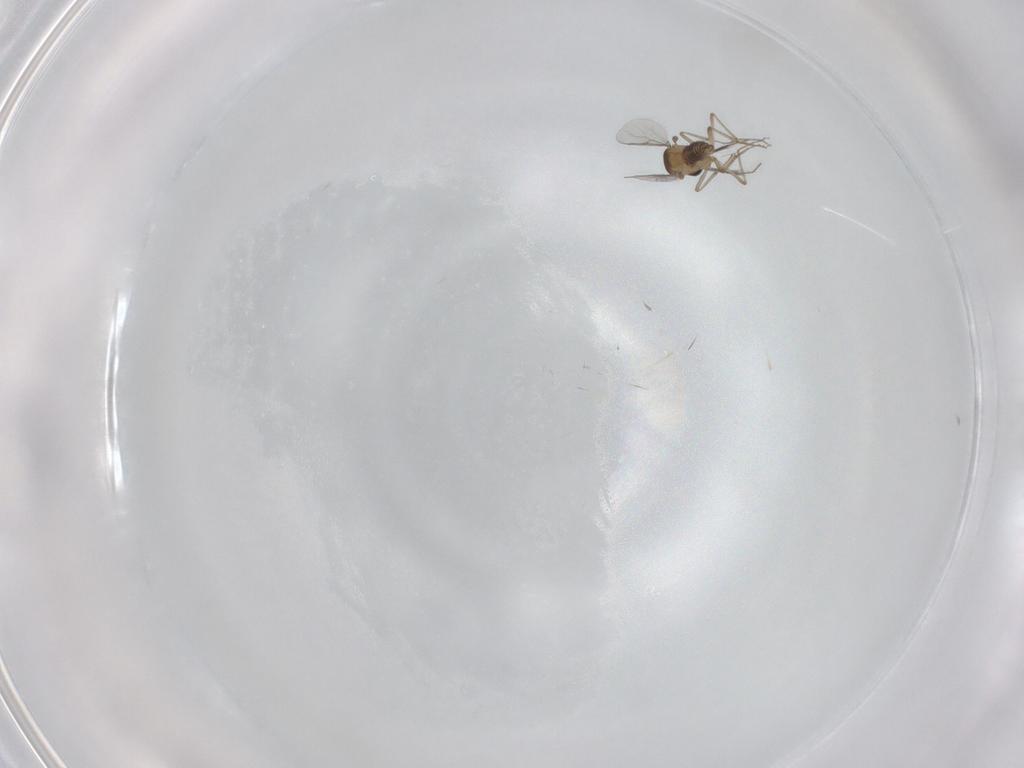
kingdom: Animalia
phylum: Arthropoda
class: Insecta
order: Diptera
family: Ceratopogonidae
